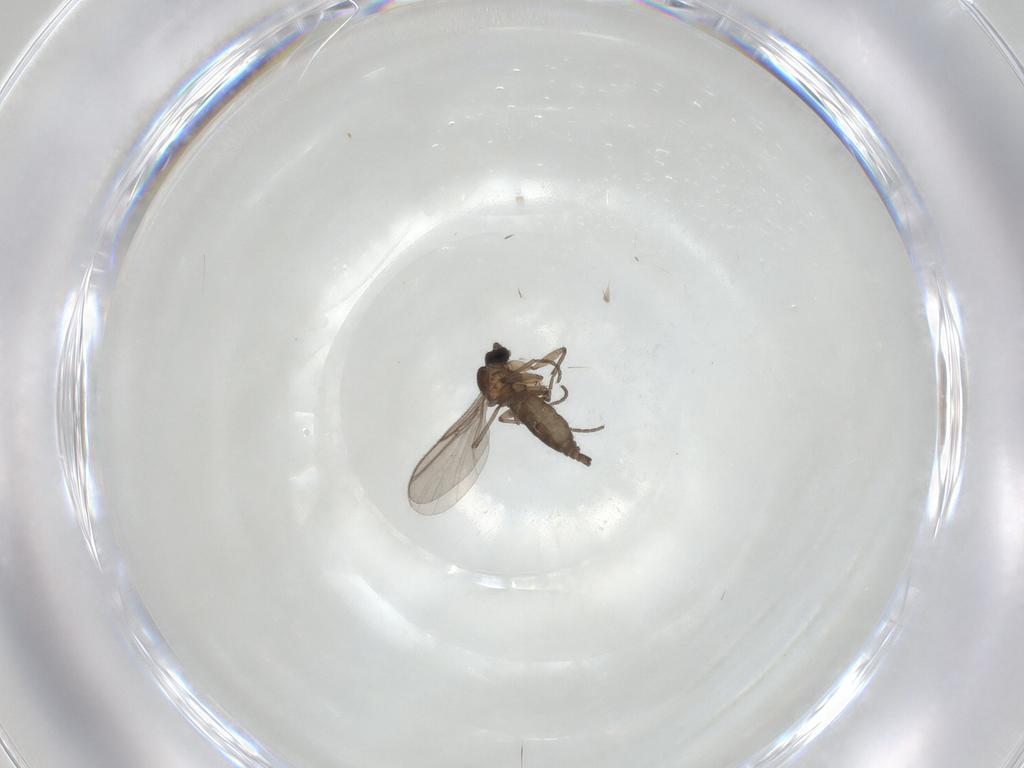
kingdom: Animalia
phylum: Arthropoda
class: Insecta
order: Diptera
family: Sciaridae
